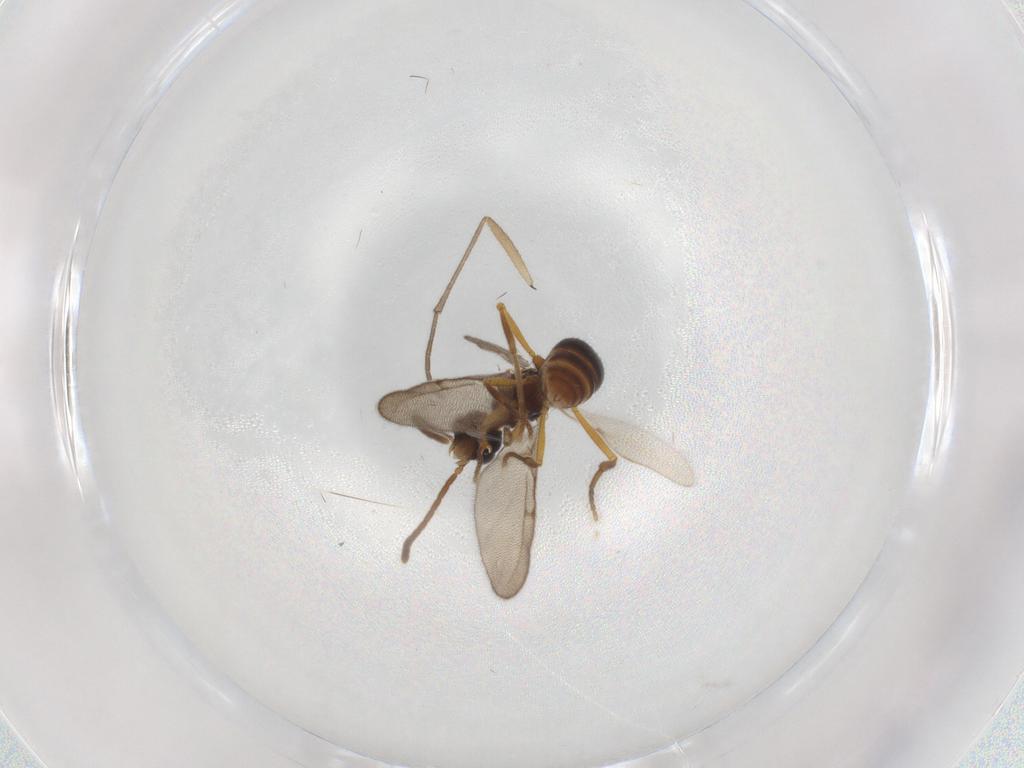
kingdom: Animalia
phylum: Arthropoda
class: Insecta
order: Hymenoptera
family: Formicidae
